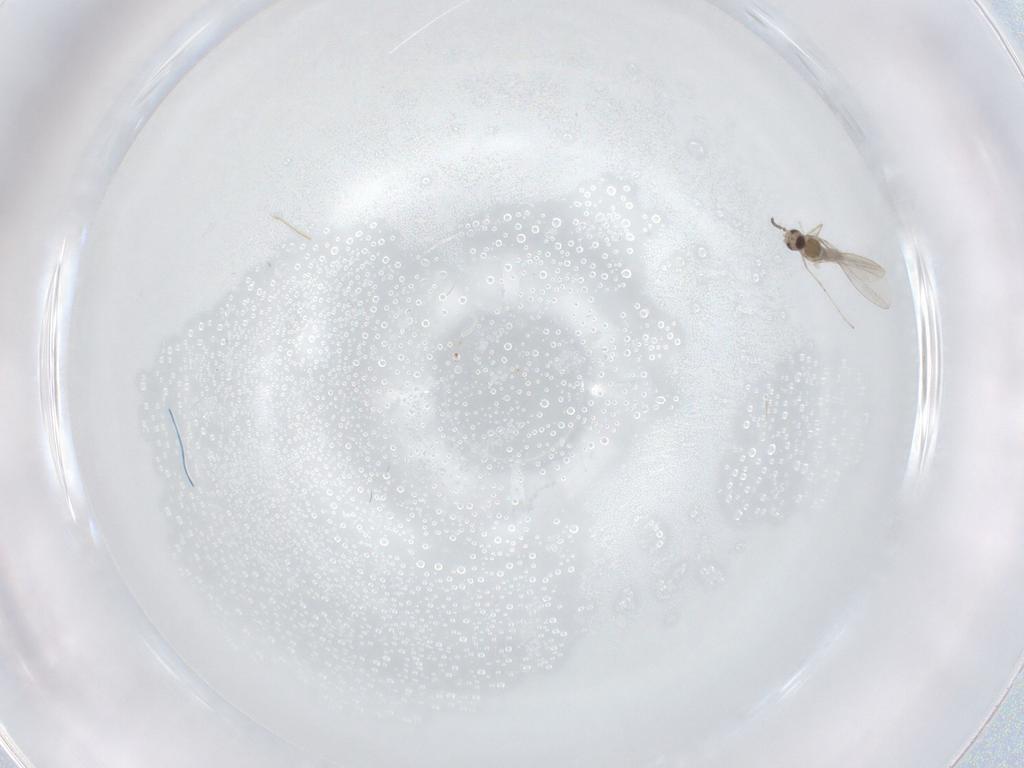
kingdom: Animalia
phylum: Arthropoda
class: Insecta
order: Diptera
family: Cecidomyiidae
